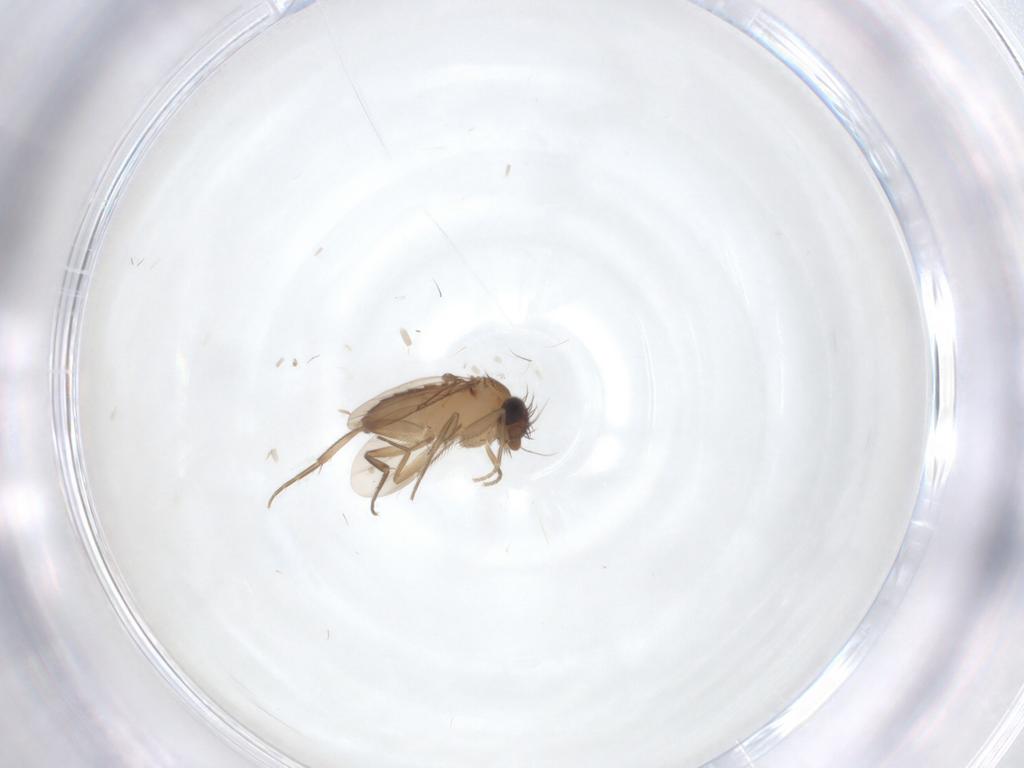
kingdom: Animalia
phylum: Arthropoda
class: Insecta
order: Diptera
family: Phoridae
